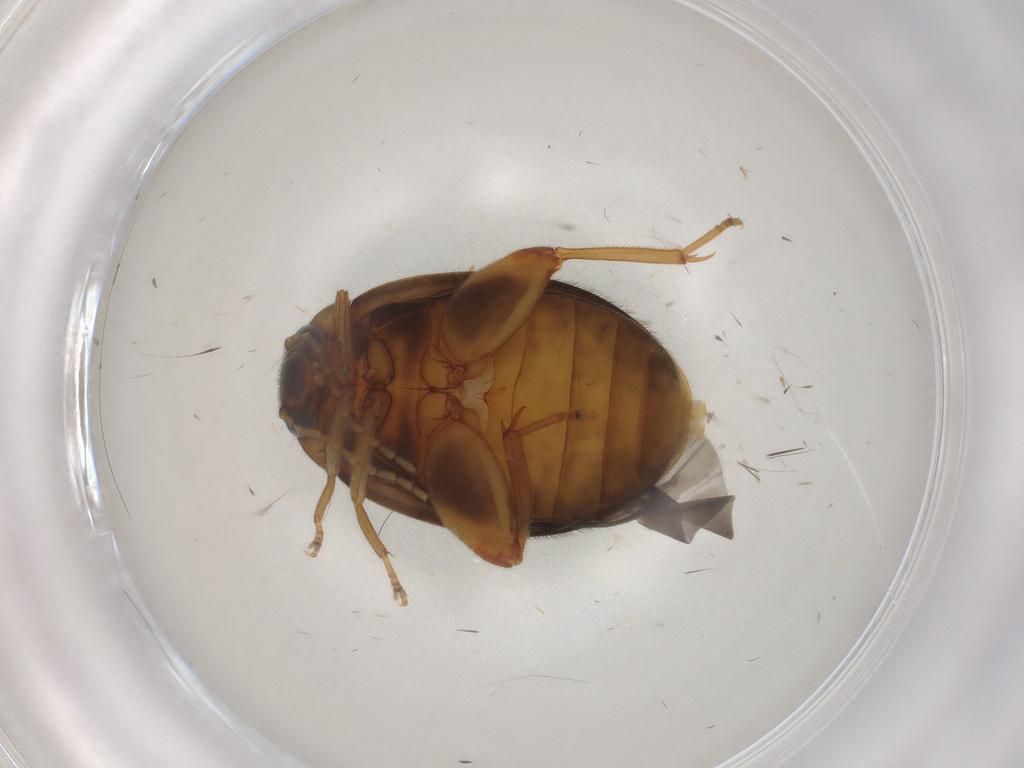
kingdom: Animalia
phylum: Arthropoda
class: Insecta
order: Coleoptera
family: Scirtidae
